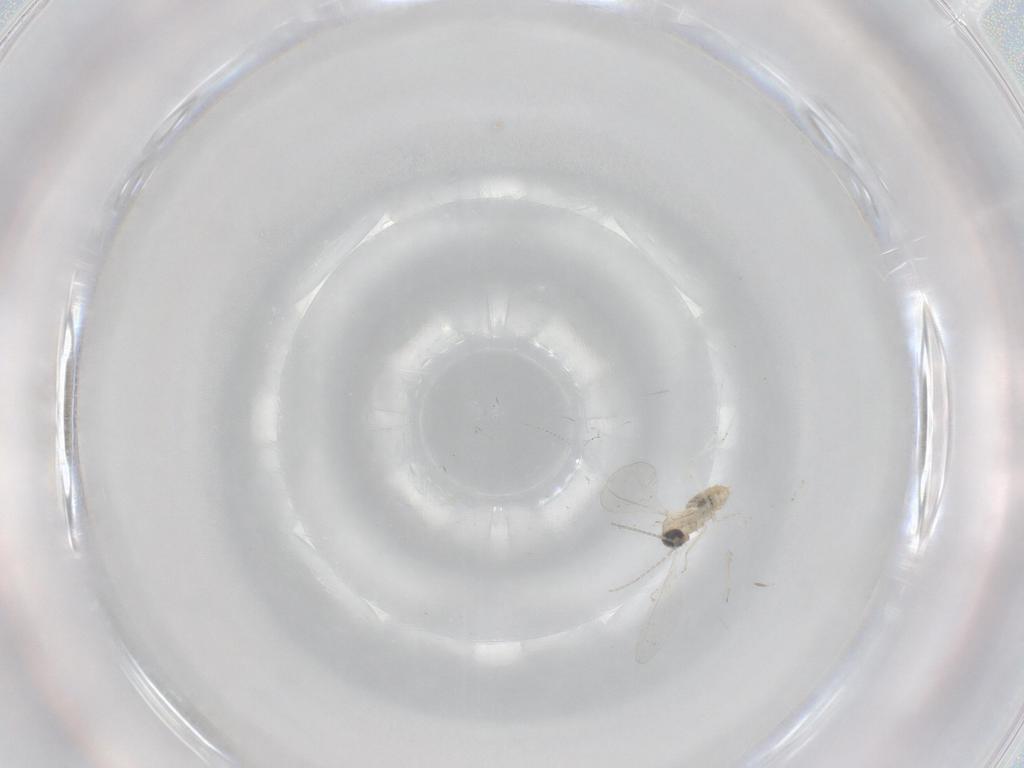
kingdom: Animalia
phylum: Arthropoda
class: Insecta
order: Diptera
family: Cecidomyiidae
